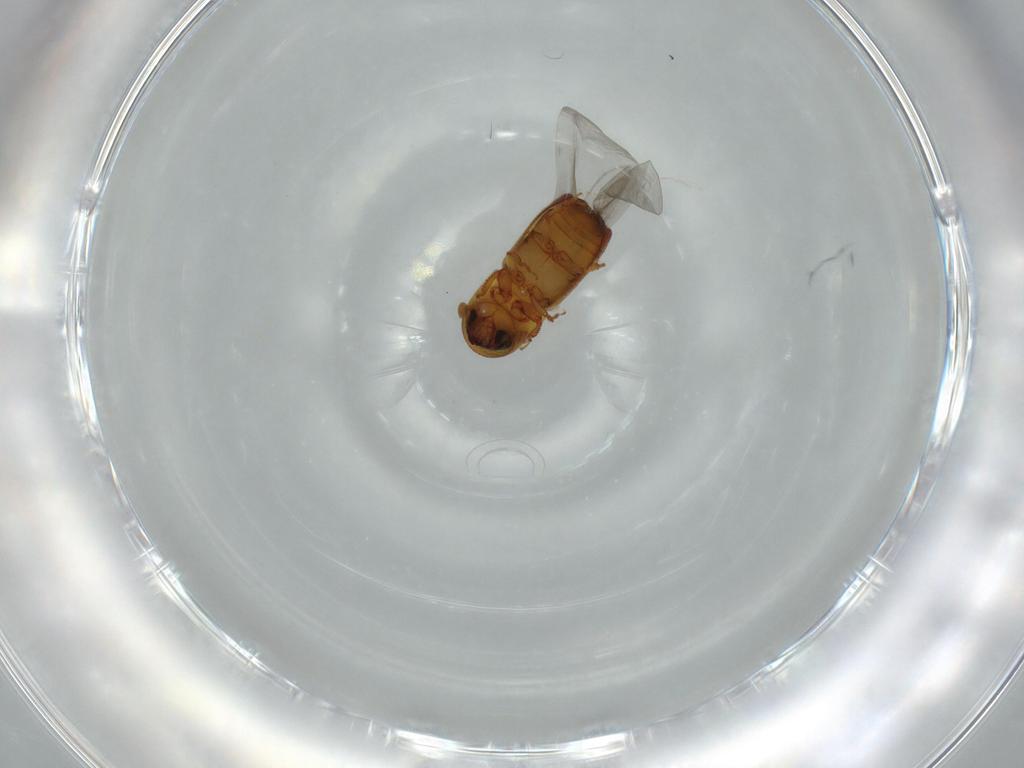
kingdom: Animalia
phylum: Arthropoda
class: Insecta
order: Coleoptera
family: Curculionidae
